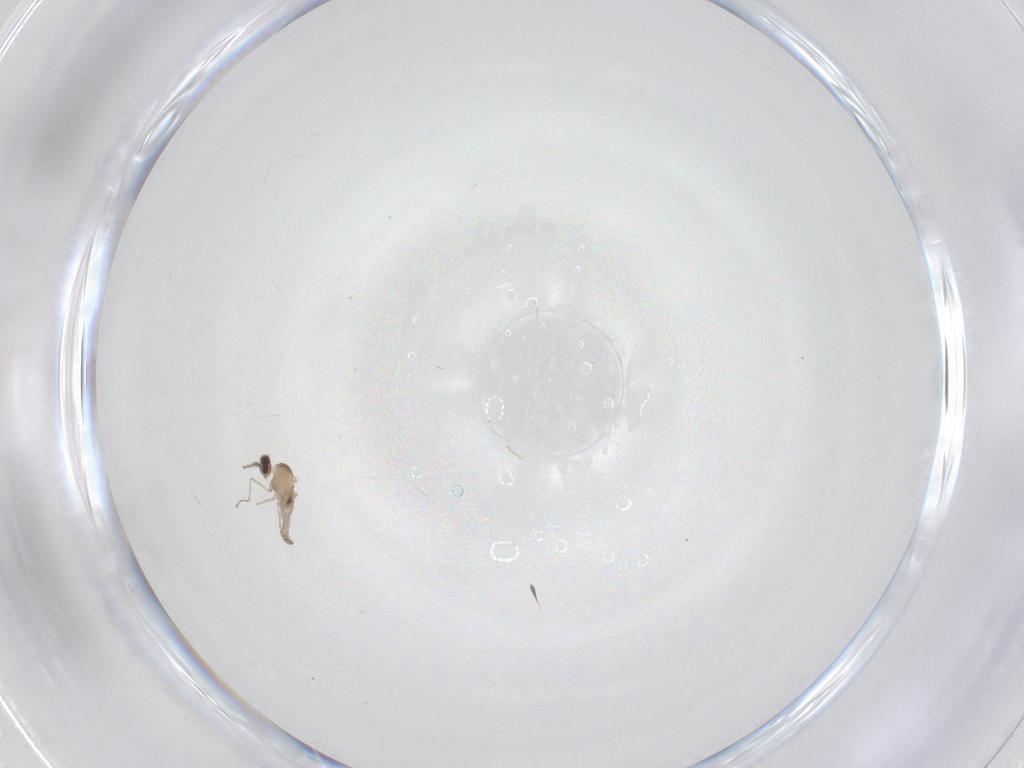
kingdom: Animalia
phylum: Arthropoda
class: Insecta
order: Diptera
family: Cecidomyiidae
